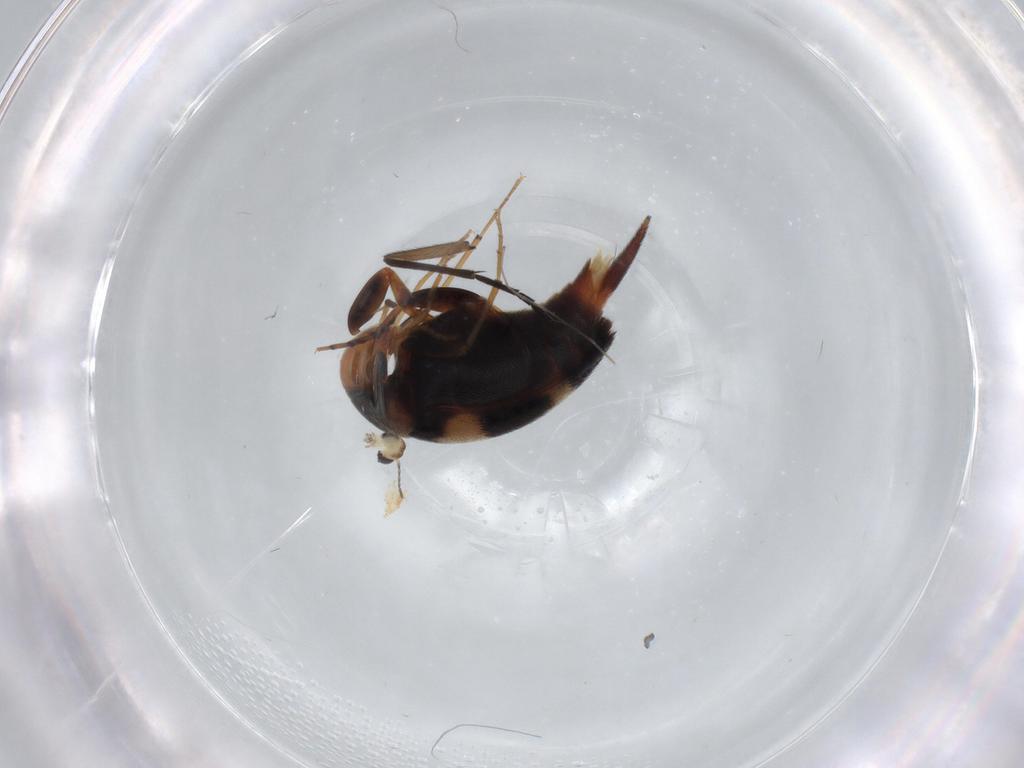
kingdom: Animalia
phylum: Arthropoda
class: Insecta
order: Coleoptera
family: Mordellidae
